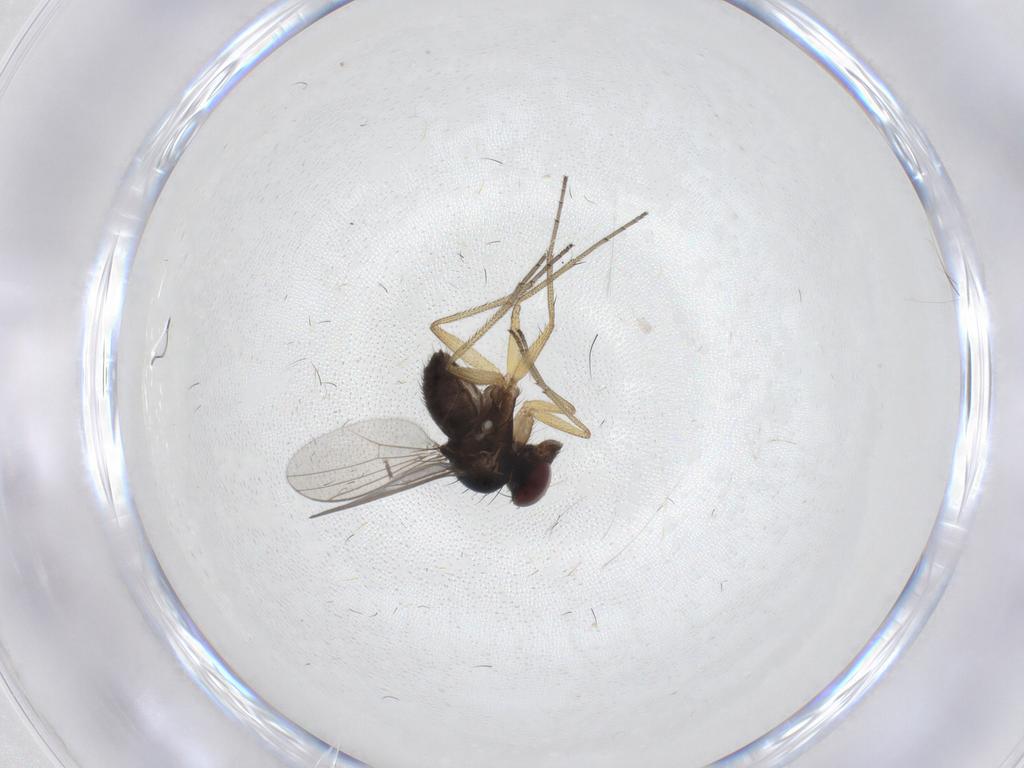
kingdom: Animalia
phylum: Arthropoda
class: Insecta
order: Diptera
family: Dolichopodidae
